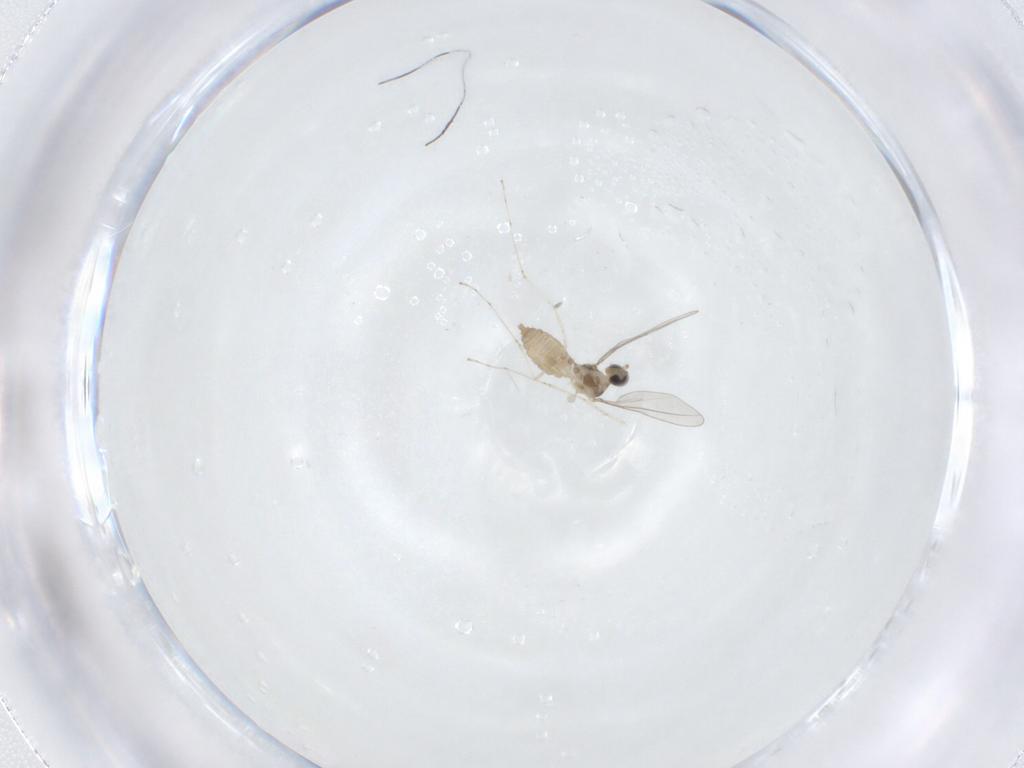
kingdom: Animalia
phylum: Arthropoda
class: Insecta
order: Diptera
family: Cecidomyiidae
